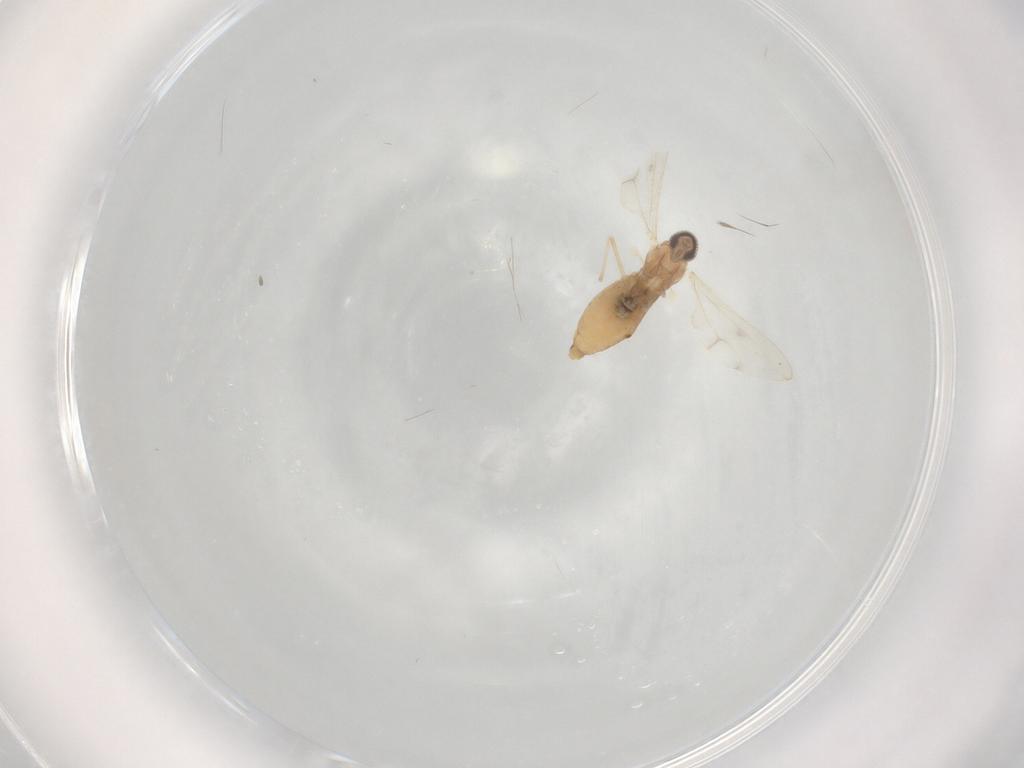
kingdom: Animalia
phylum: Arthropoda
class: Insecta
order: Diptera
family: Cecidomyiidae
